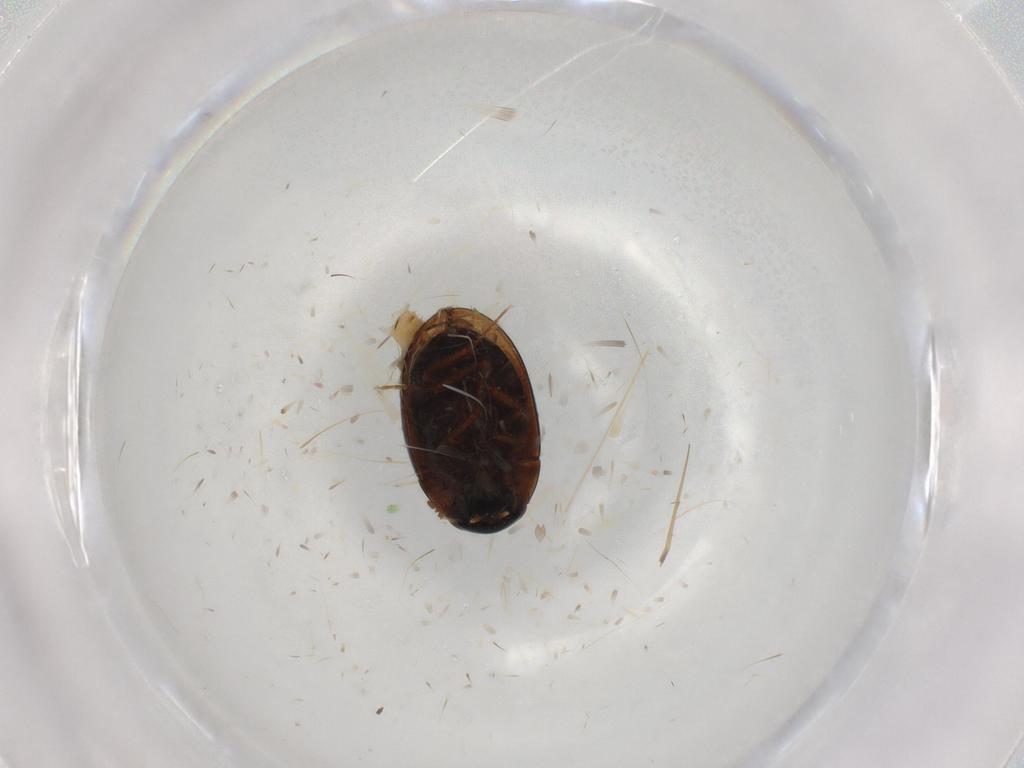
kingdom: Animalia
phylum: Arthropoda
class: Insecta
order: Coleoptera
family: Hydrophilidae
